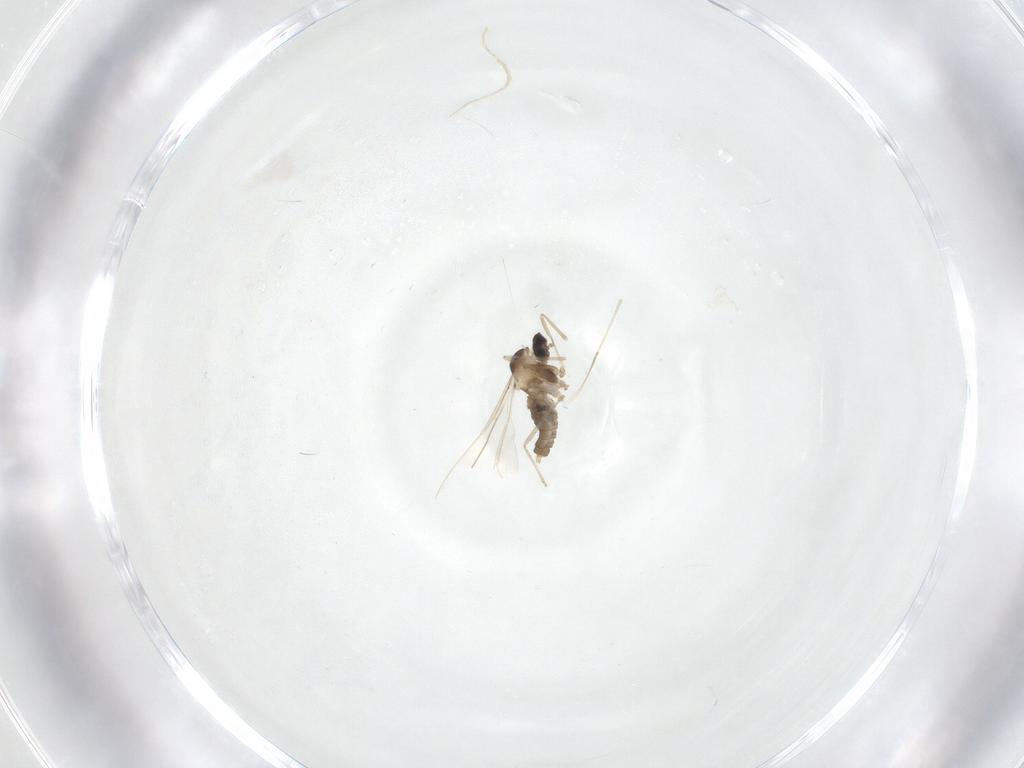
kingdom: Animalia
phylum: Arthropoda
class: Insecta
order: Diptera
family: Cecidomyiidae
